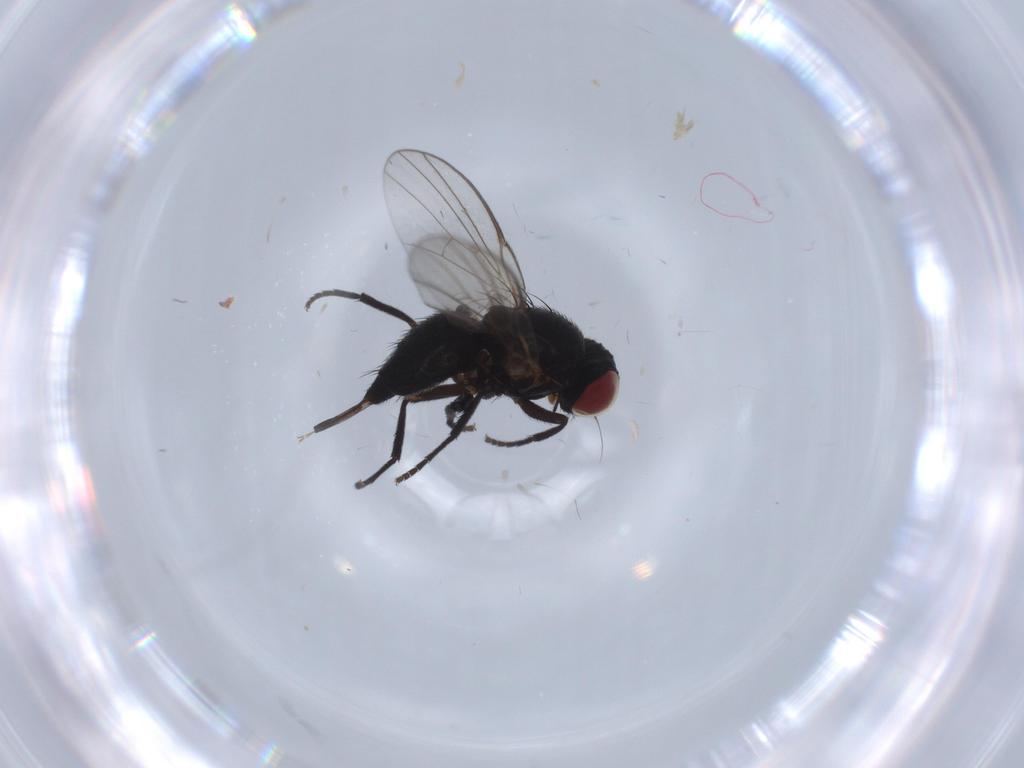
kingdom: Animalia
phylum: Arthropoda
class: Insecta
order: Diptera
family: Agromyzidae
